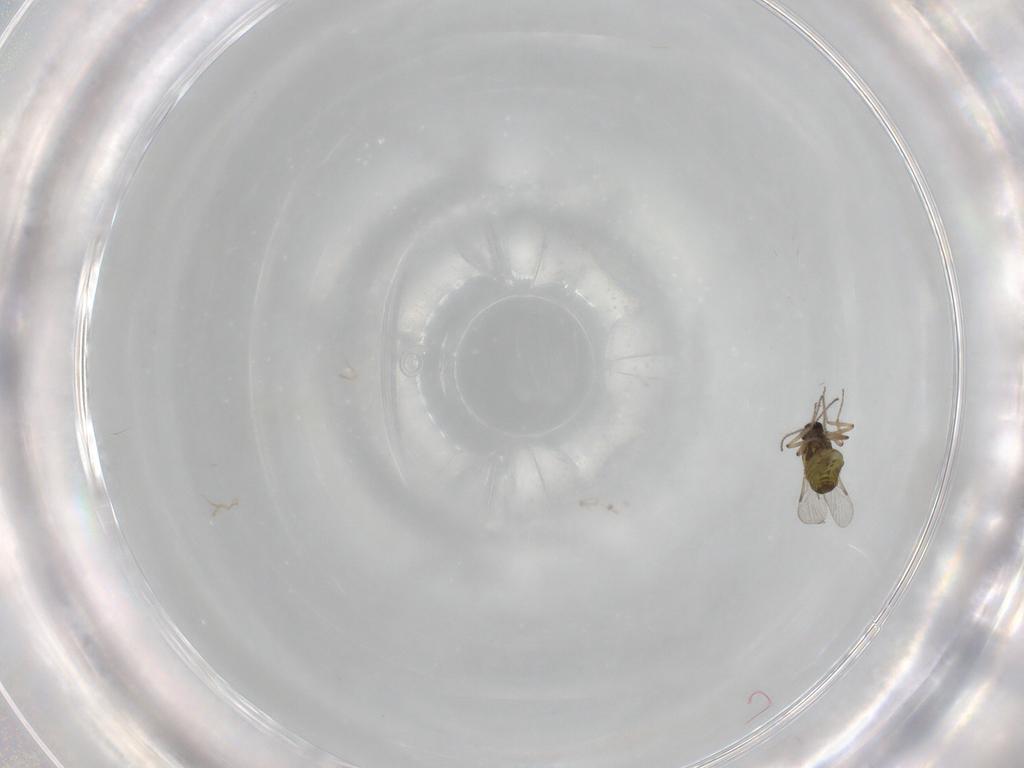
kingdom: Animalia
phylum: Arthropoda
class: Insecta
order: Diptera
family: Ceratopogonidae
